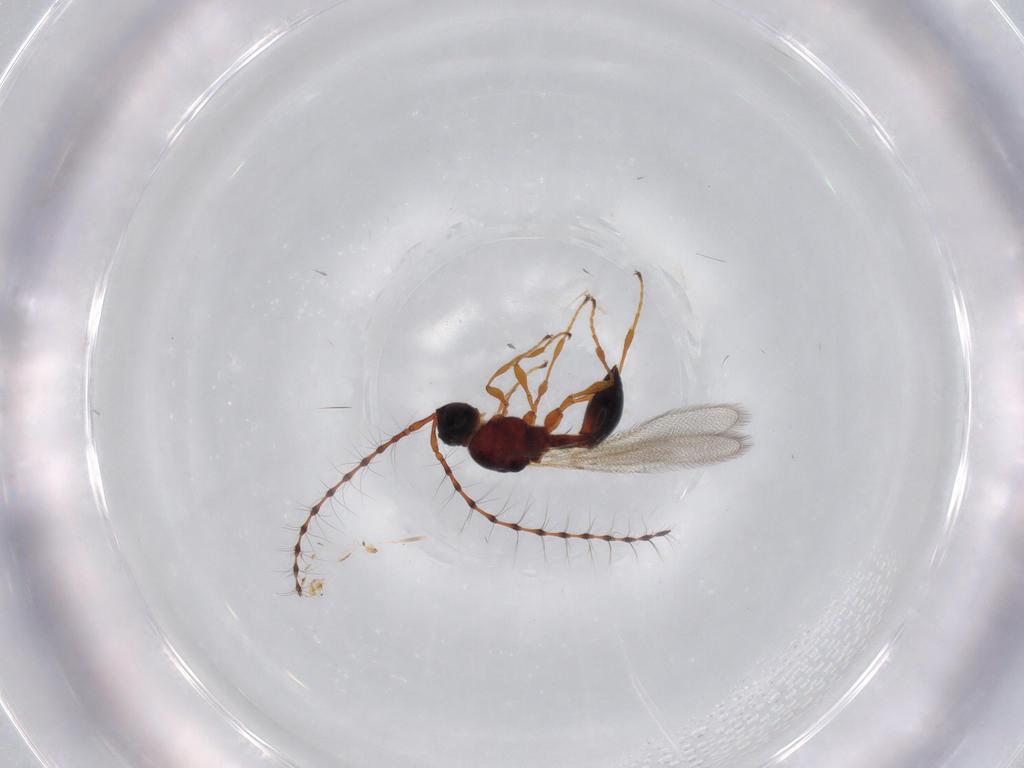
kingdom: Animalia
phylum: Arthropoda
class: Insecta
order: Hymenoptera
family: Diapriidae
